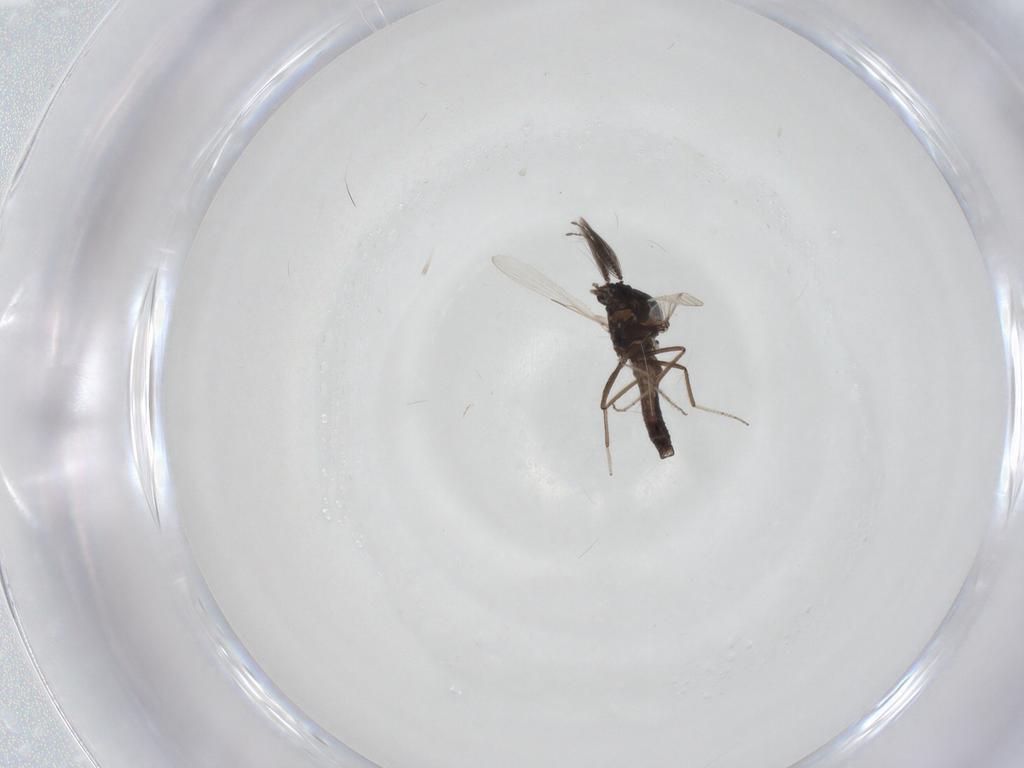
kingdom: Animalia
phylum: Arthropoda
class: Insecta
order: Diptera
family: Ceratopogonidae
